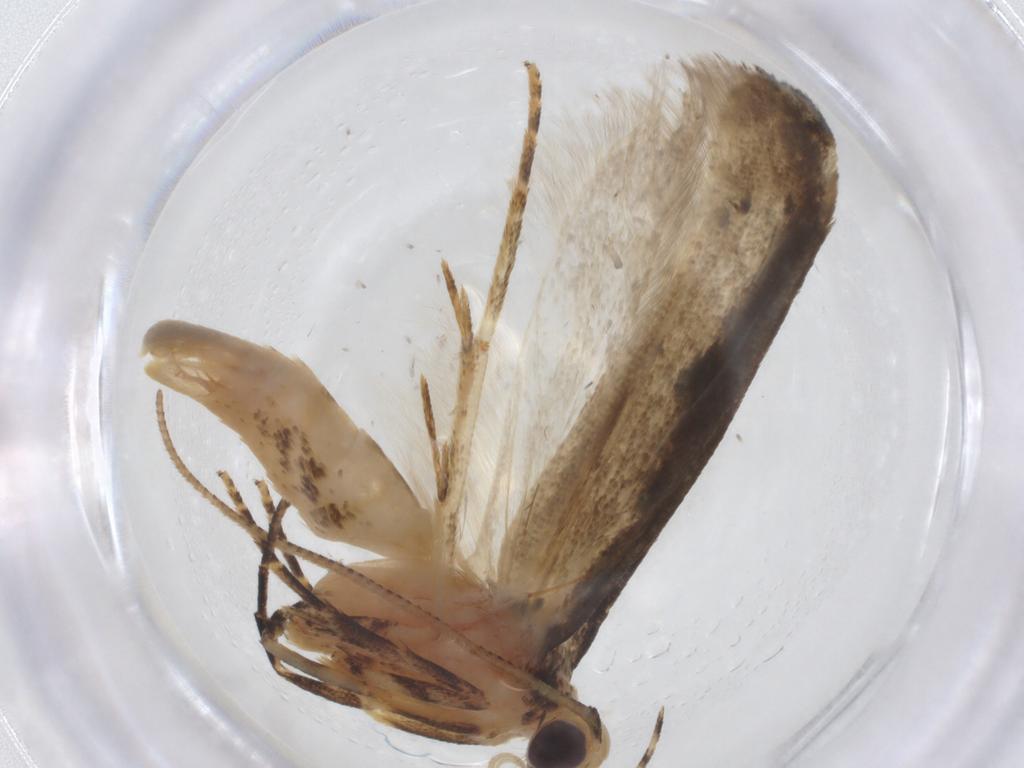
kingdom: Animalia
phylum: Arthropoda
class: Insecta
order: Lepidoptera
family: Gelechiidae
